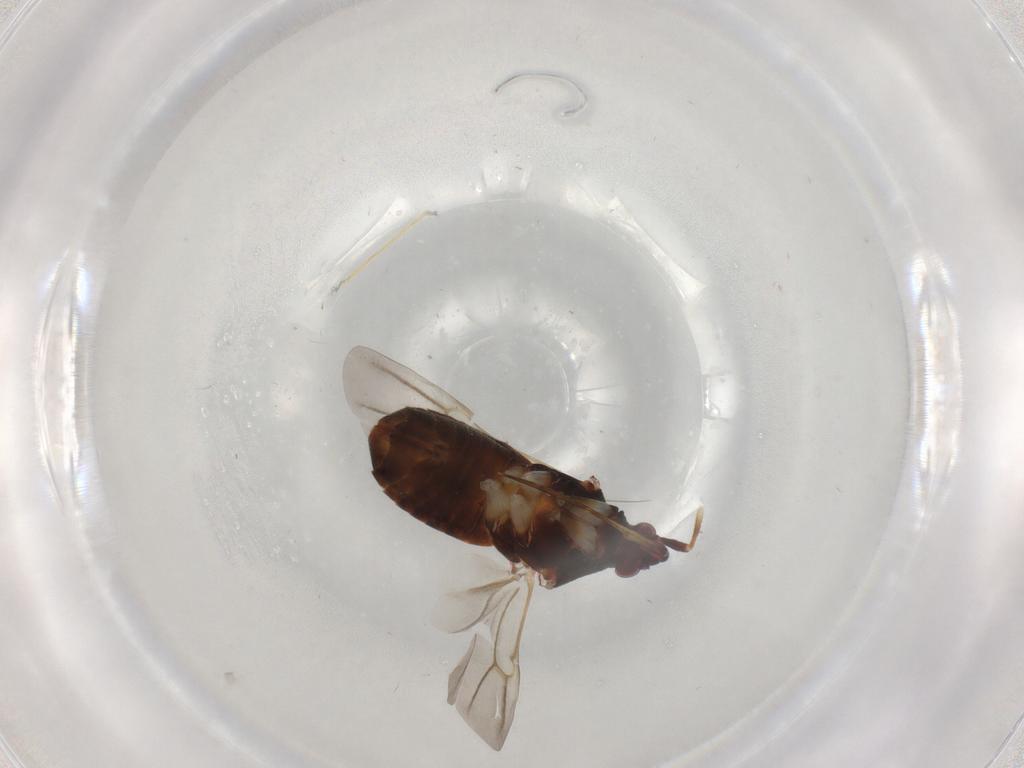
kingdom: Animalia
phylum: Arthropoda
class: Insecta
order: Hemiptera
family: Miridae
